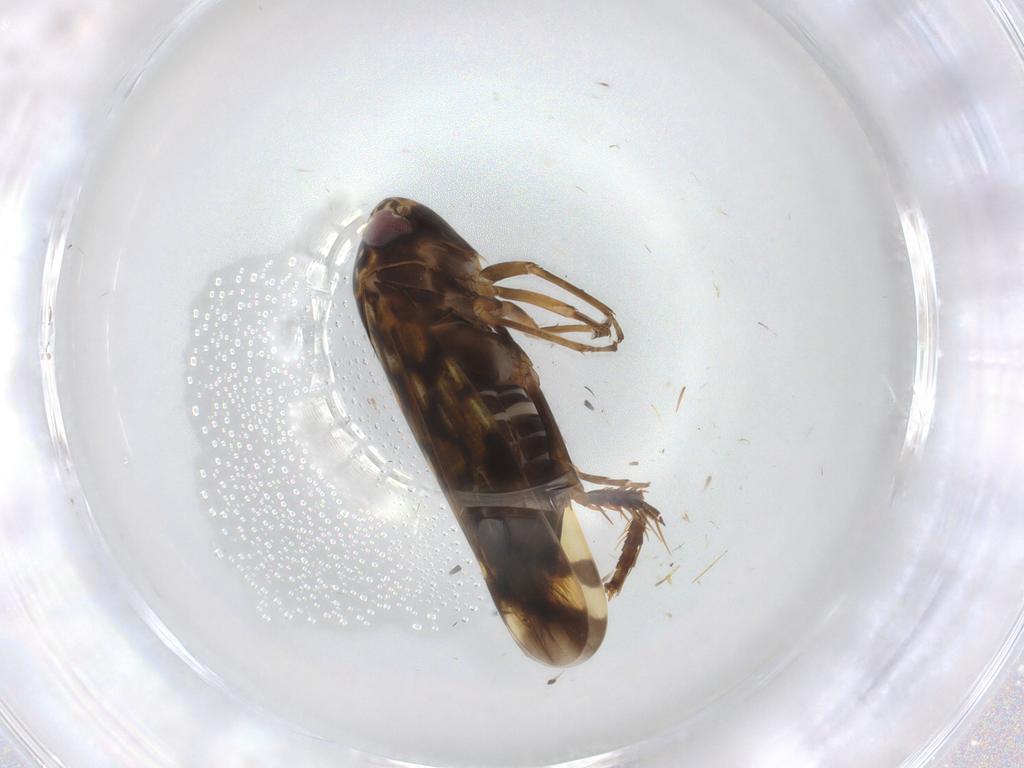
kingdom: Animalia
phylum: Arthropoda
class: Insecta
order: Hemiptera
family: Cicadellidae
